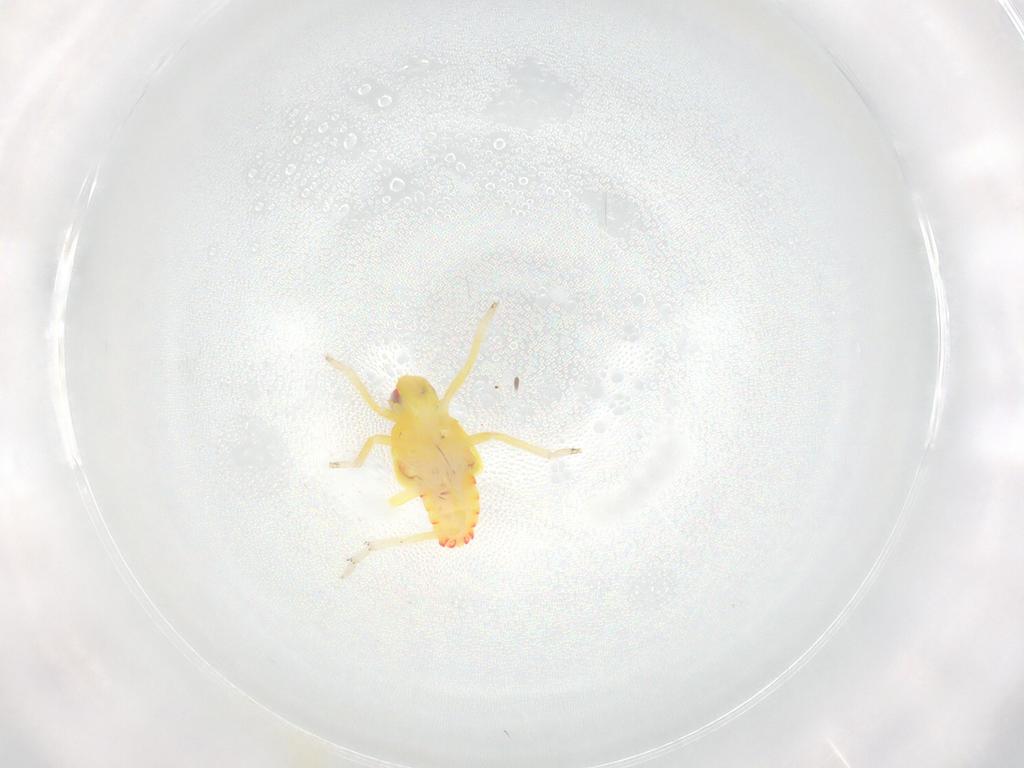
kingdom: Animalia
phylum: Arthropoda
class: Insecta
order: Hemiptera
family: Tropiduchidae
